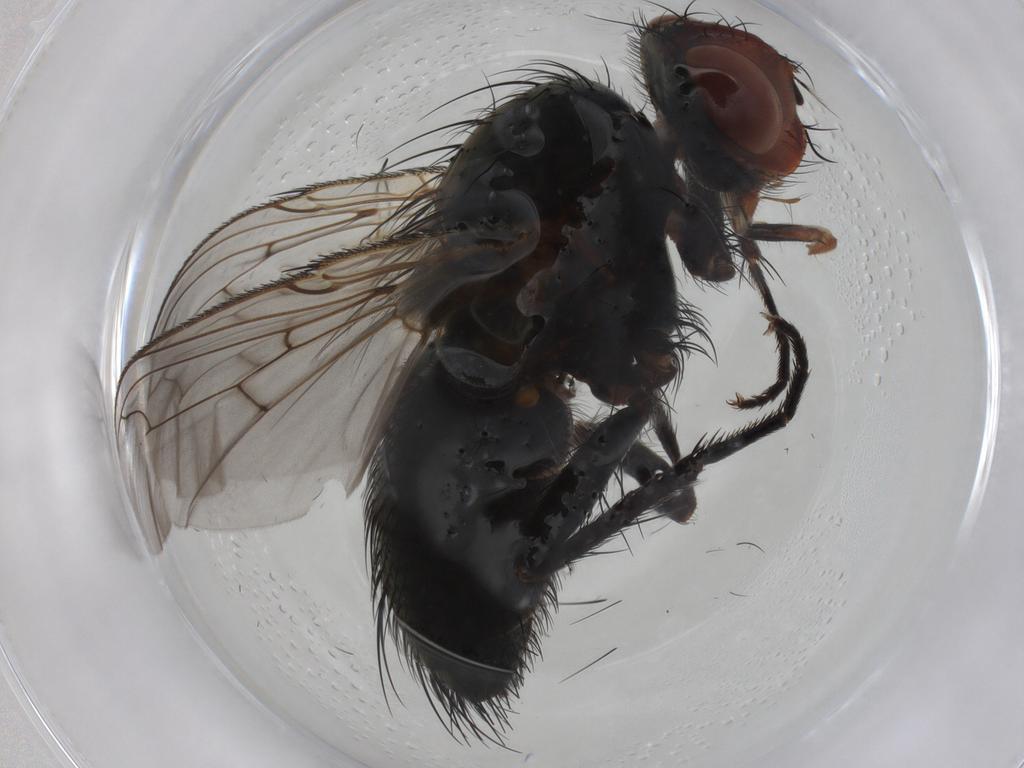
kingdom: Animalia
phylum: Arthropoda
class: Insecta
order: Diptera
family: Tachinidae
